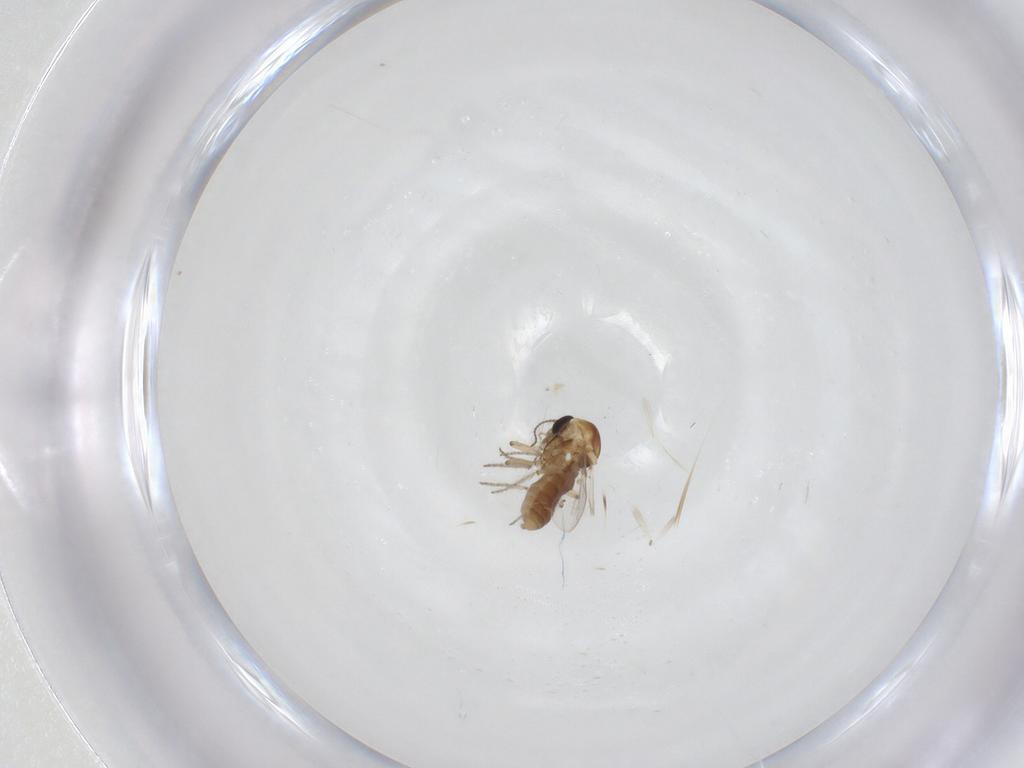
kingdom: Animalia
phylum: Arthropoda
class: Insecta
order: Diptera
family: Ceratopogonidae
